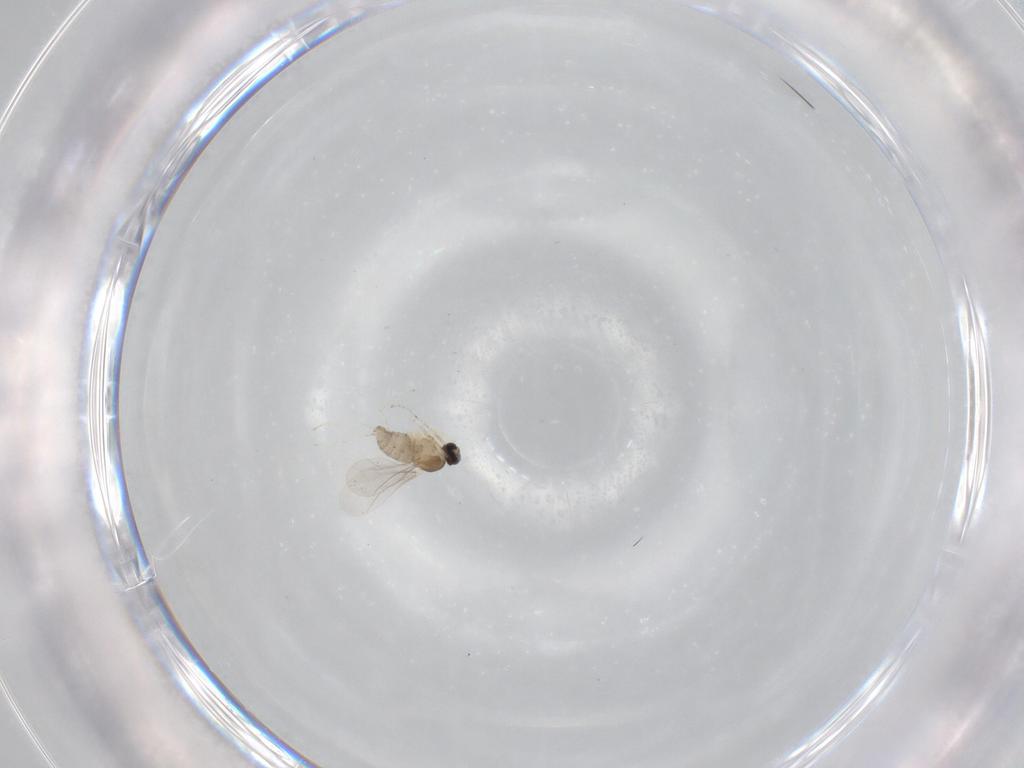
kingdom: Animalia
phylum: Arthropoda
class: Insecta
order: Diptera
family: Cecidomyiidae
